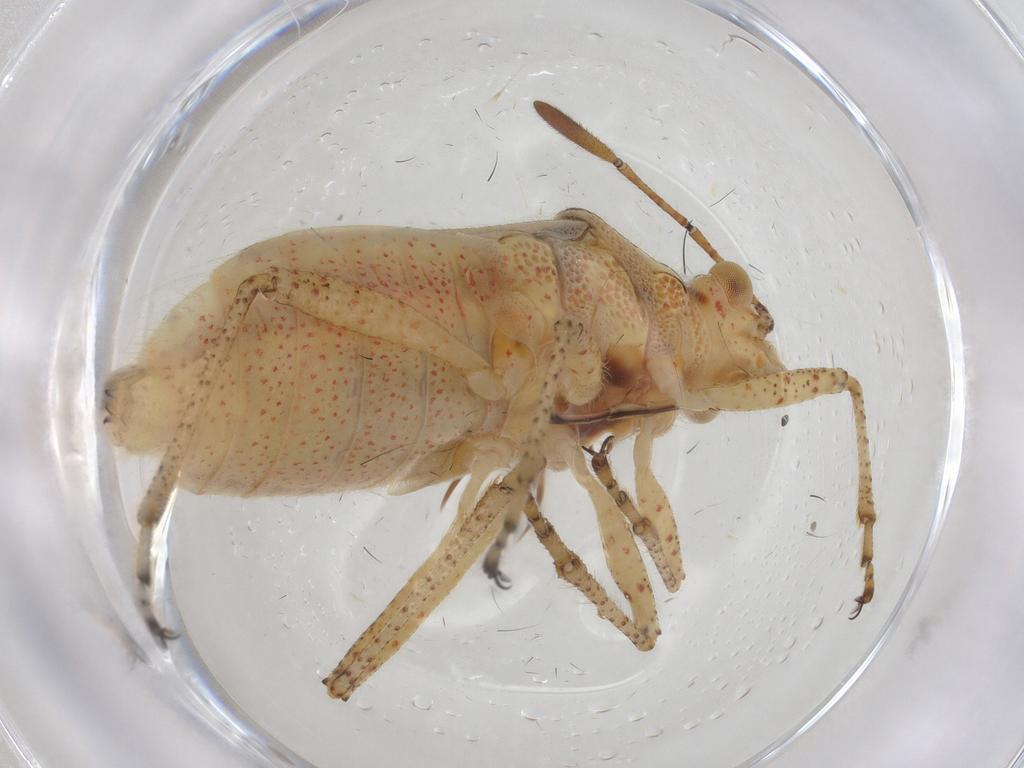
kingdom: Animalia
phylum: Arthropoda
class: Insecta
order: Hemiptera
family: Rhopalidae
